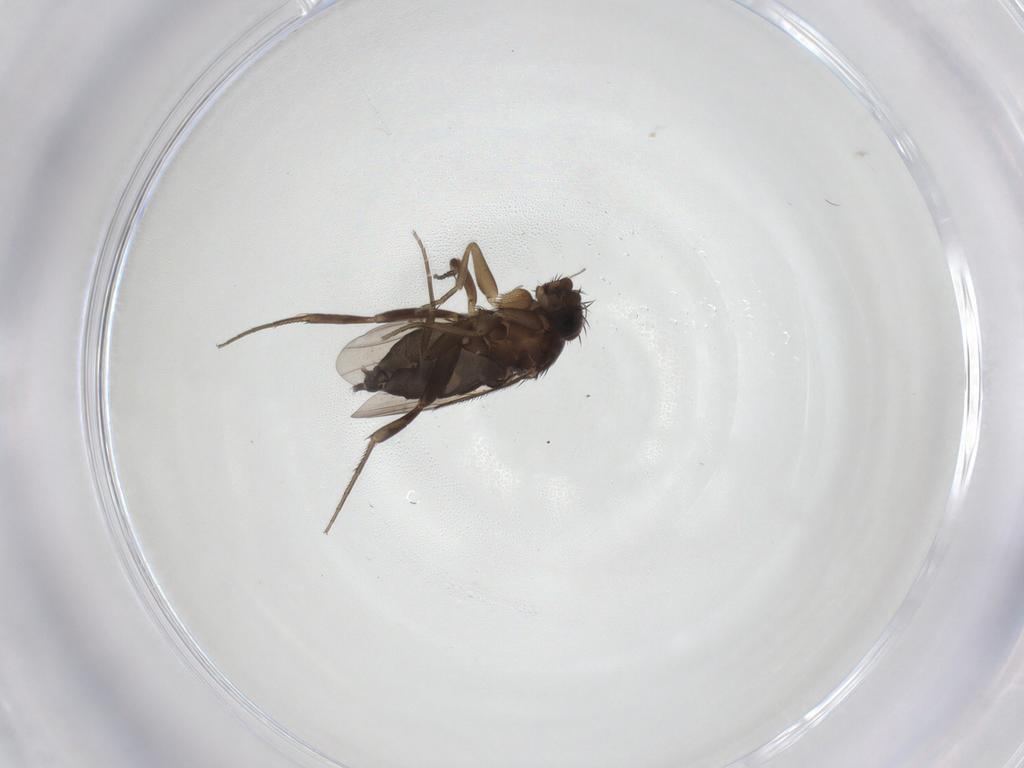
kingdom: Animalia
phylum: Arthropoda
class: Insecta
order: Diptera
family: Phoridae
